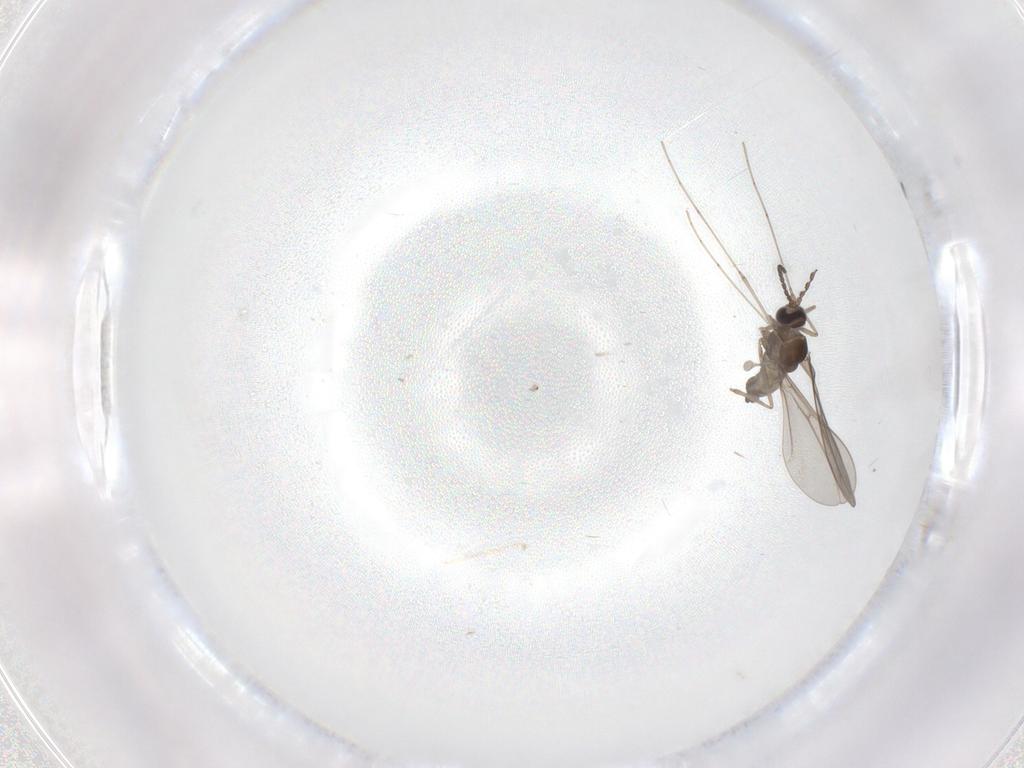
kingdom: Animalia
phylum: Arthropoda
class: Insecta
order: Diptera
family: Cecidomyiidae
